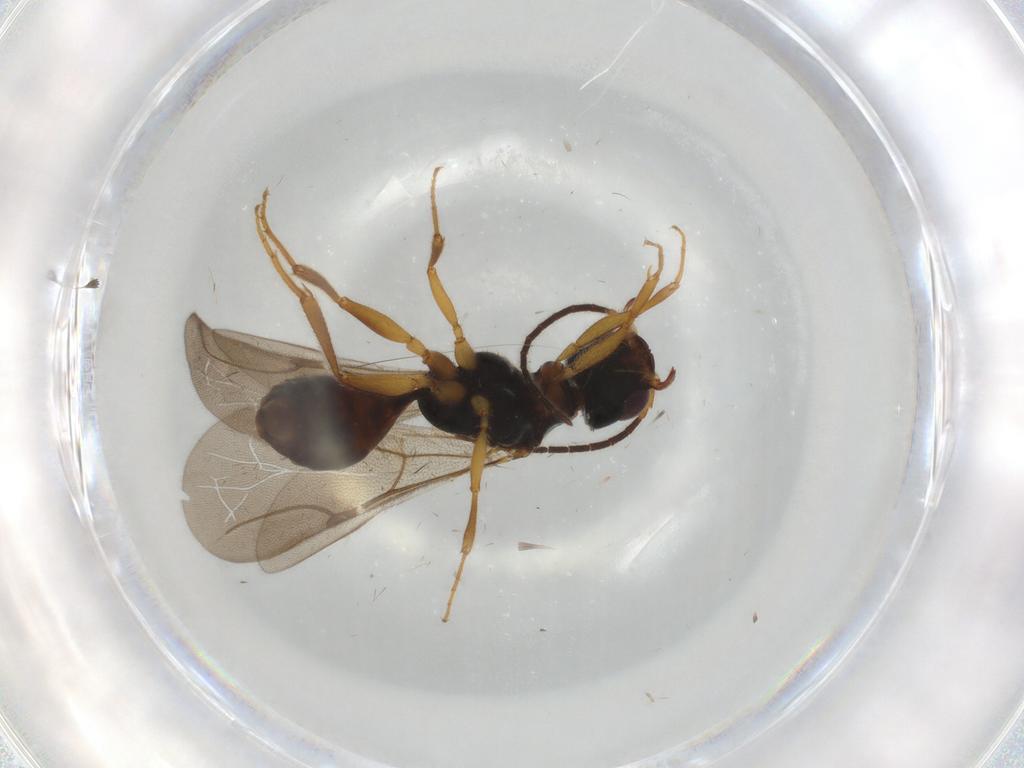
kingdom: Animalia
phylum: Arthropoda
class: Insecta
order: Hymenoptera
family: Bethylidae
